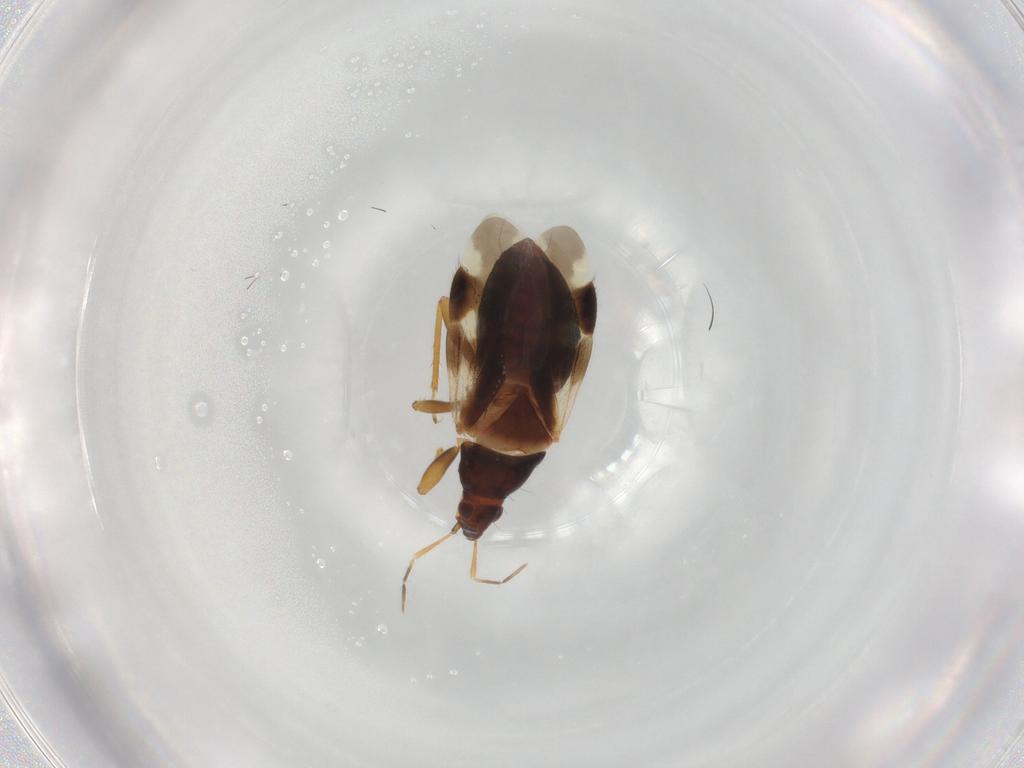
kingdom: Animalia
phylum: Arthropoda
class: Insecta
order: Hemiptera
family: Anthocoridae
